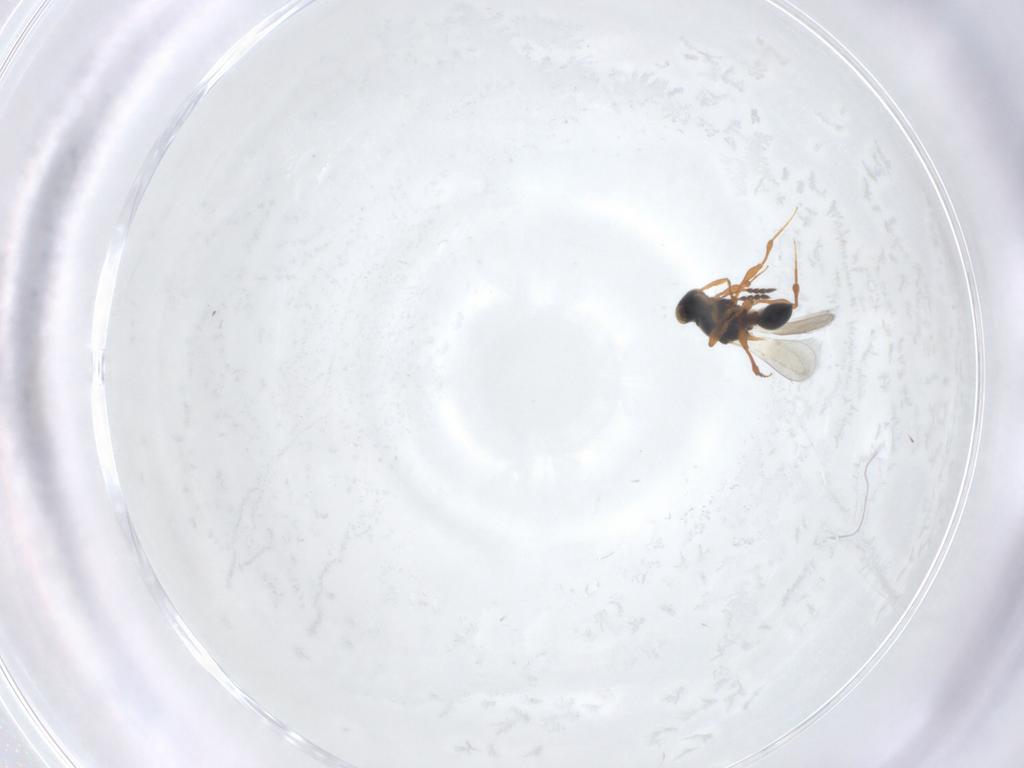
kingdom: Animalia
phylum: Arthropoda
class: Insecta
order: Hymenoptera
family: Platygastridae
